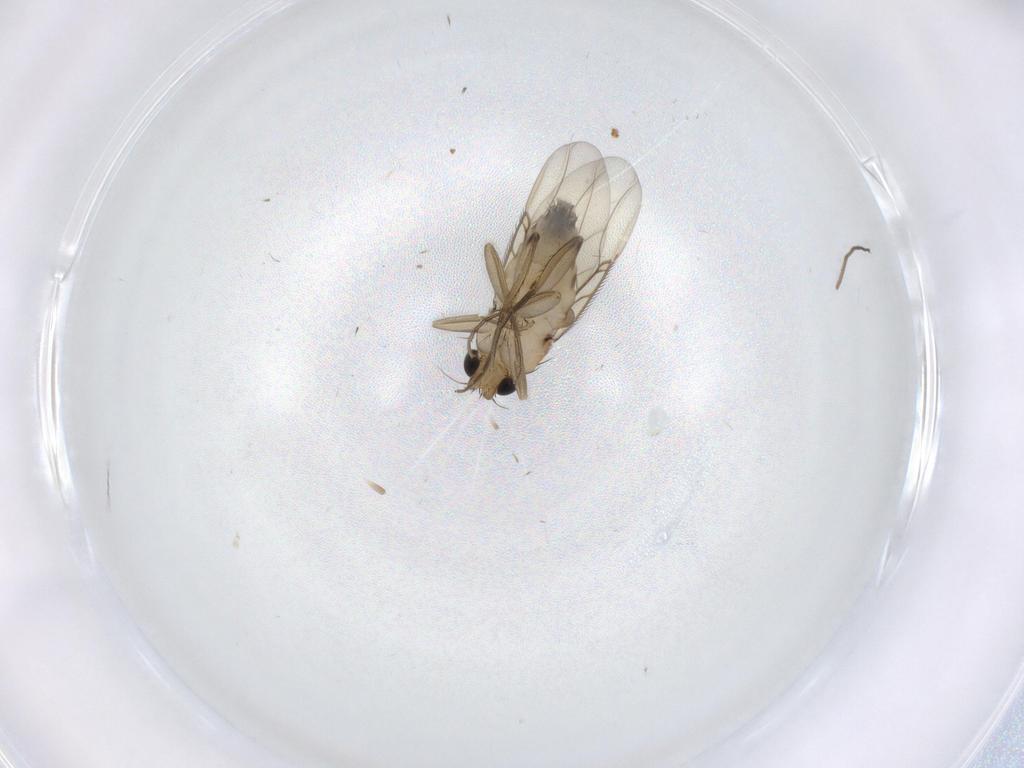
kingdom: Animalia
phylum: Arthropoda
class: Insecta
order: Diptera
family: Phoridae
